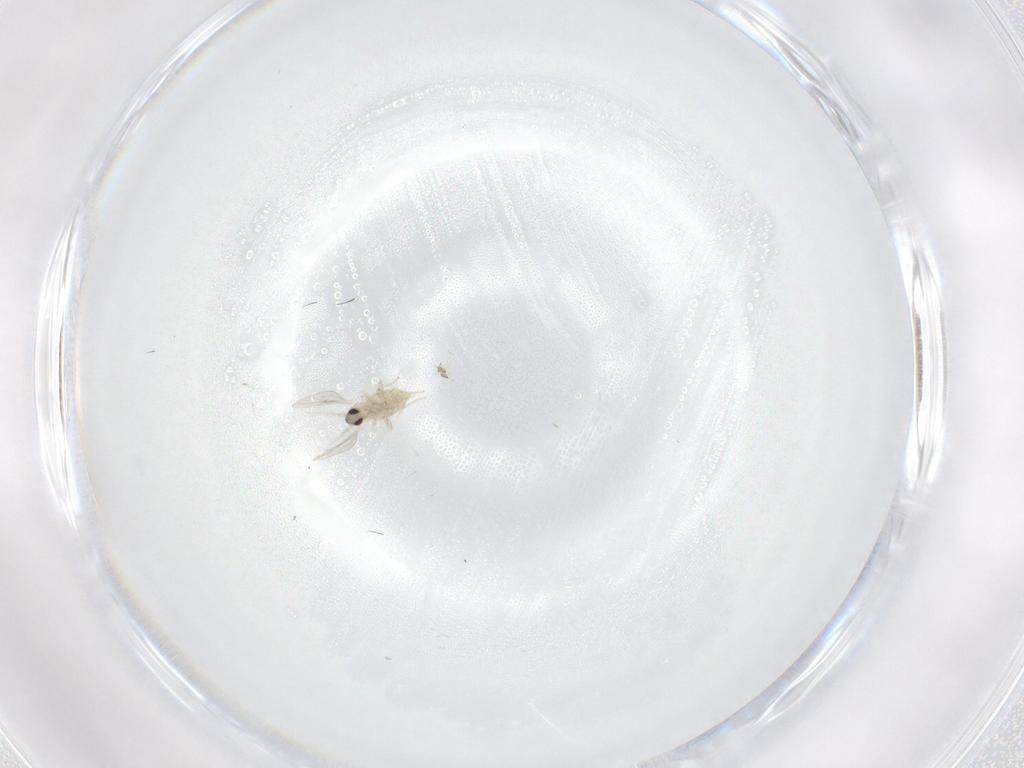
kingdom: Animalia
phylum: Arthropoda
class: Insecta
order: Diptera
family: Cecidomyiidae
